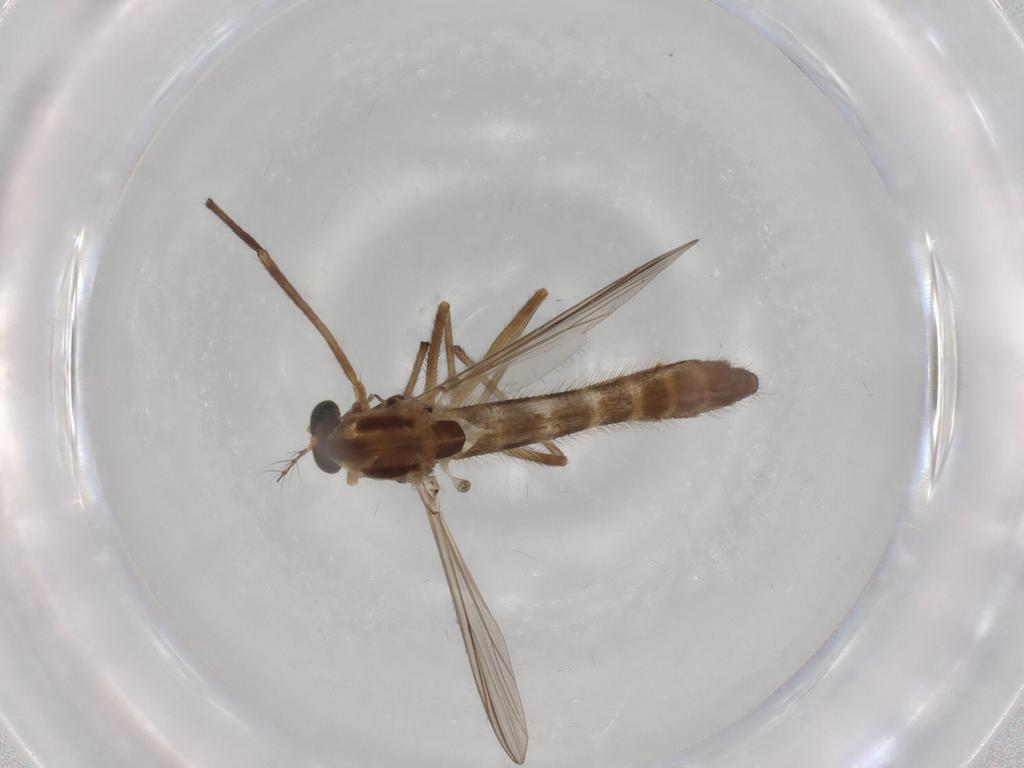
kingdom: Animalia
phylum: Arthropoda
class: Insecta
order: Diptera
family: Chironomidae
